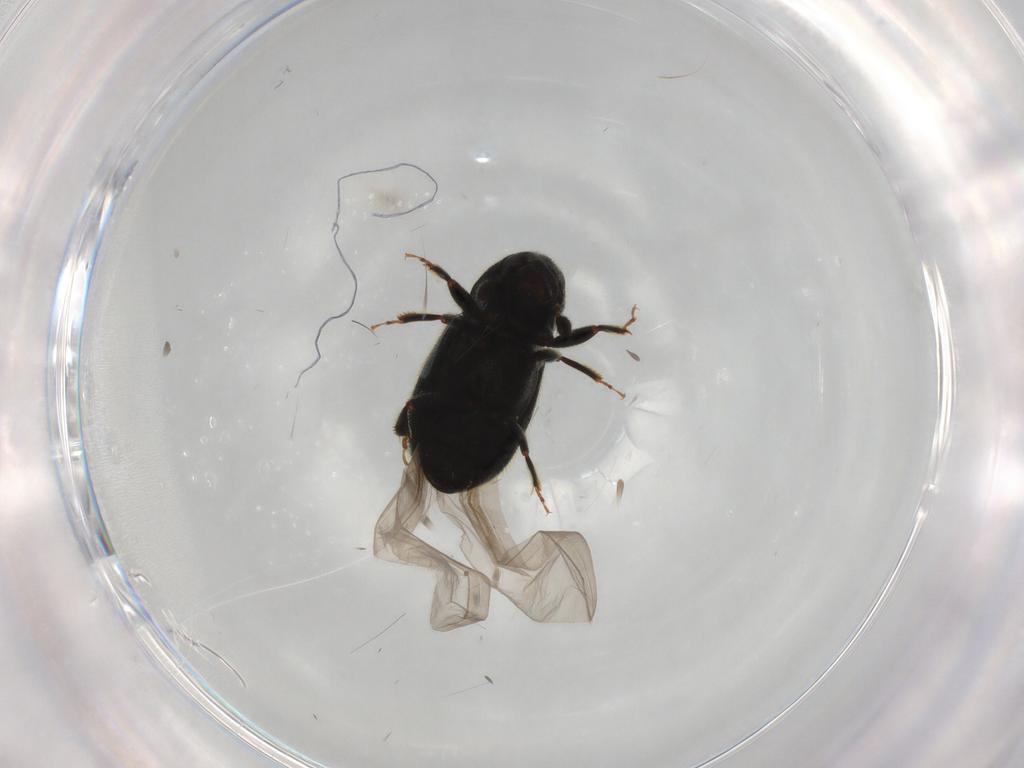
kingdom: Animalia
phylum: Arthropoda
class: Insecta
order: Coleoptera
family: Curculionidae
